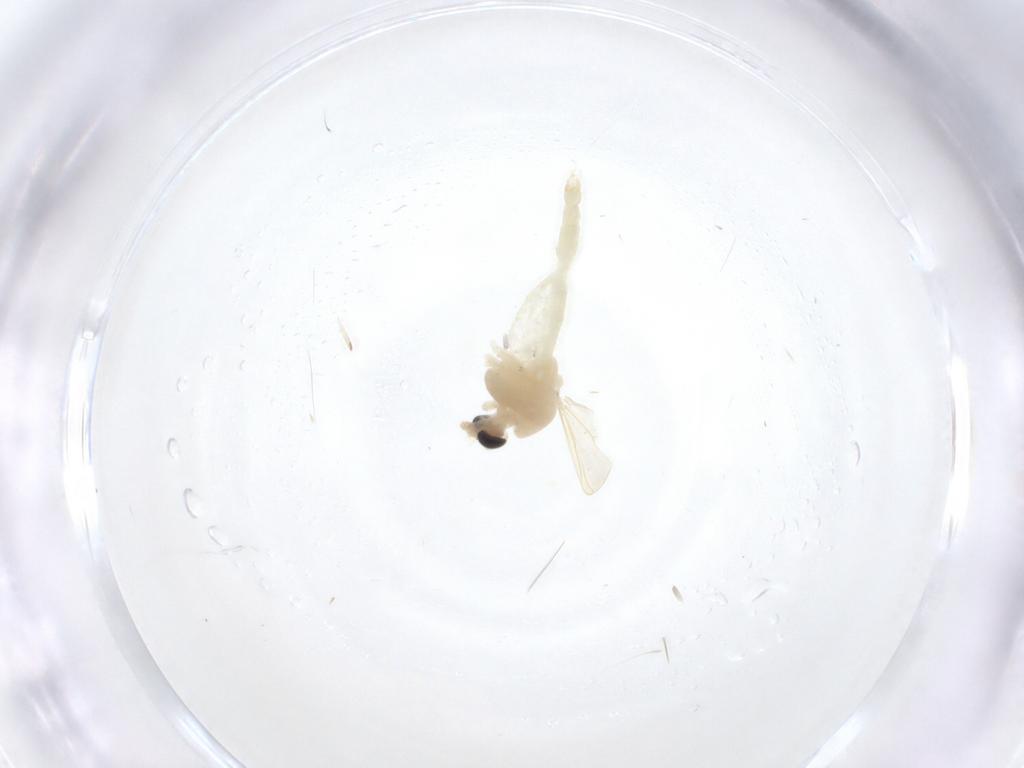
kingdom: Animalia
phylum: Arthropoda
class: Insecta
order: Diptera
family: Chironomidae
